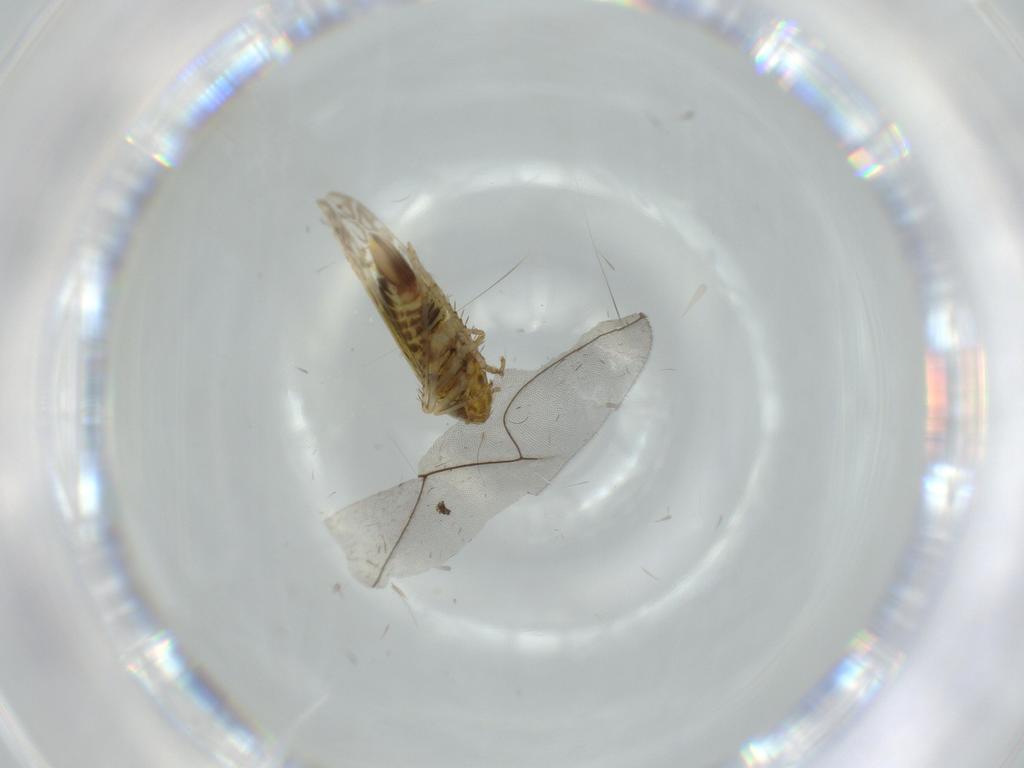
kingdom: Animalia
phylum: Arthropoda
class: Insecta
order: Hemiptera
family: Cicadellidae
